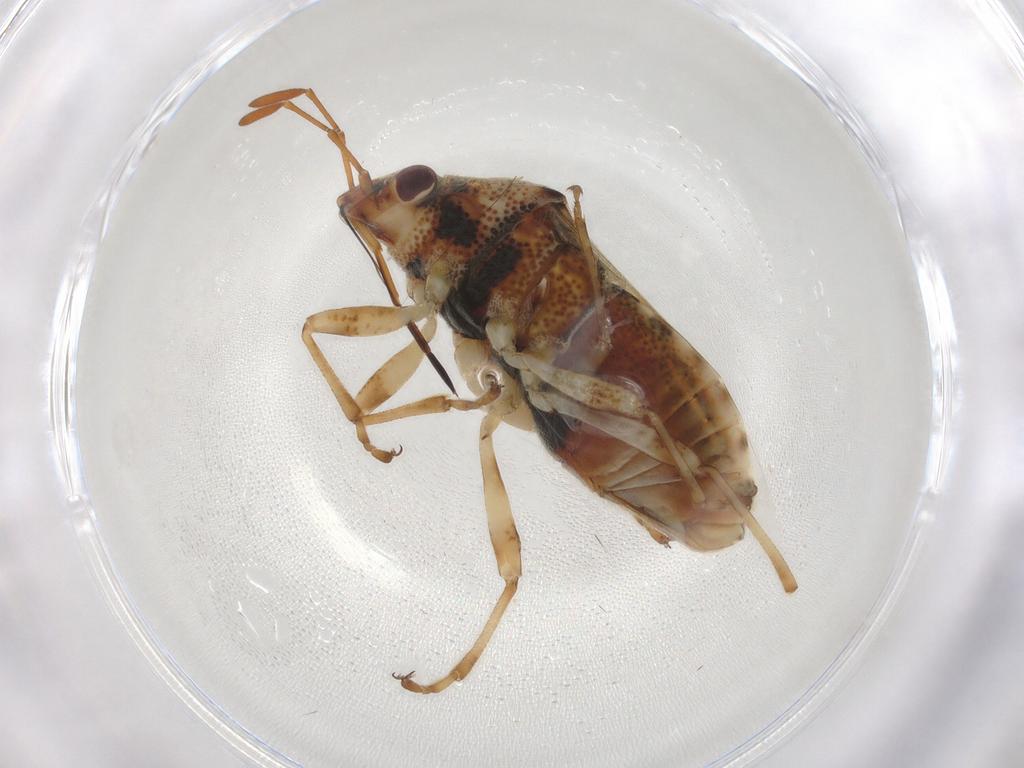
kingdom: Animalia
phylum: Arthropoda
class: Insecta
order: Hemiptera
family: Lygaeidae
